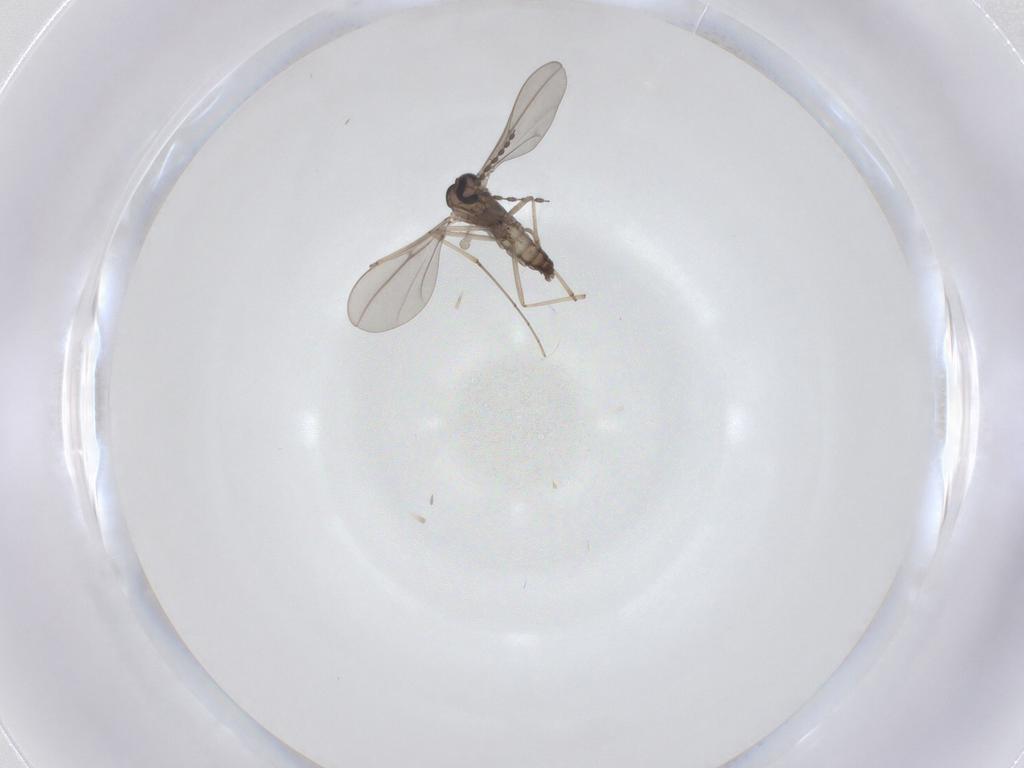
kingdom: Animalia
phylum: Arthropoda
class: Insecta
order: Diptera
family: Cecidomyiidae
